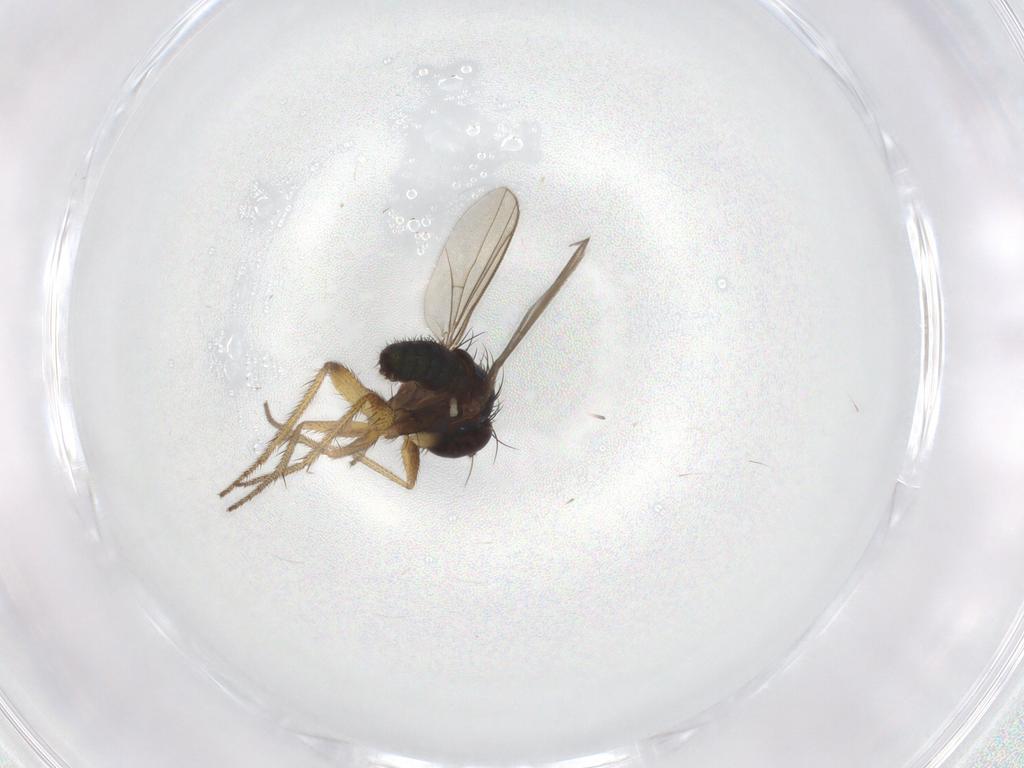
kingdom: Animalia
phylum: Arthropoda
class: Insecta
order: Diptera
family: Dolichopodidae
